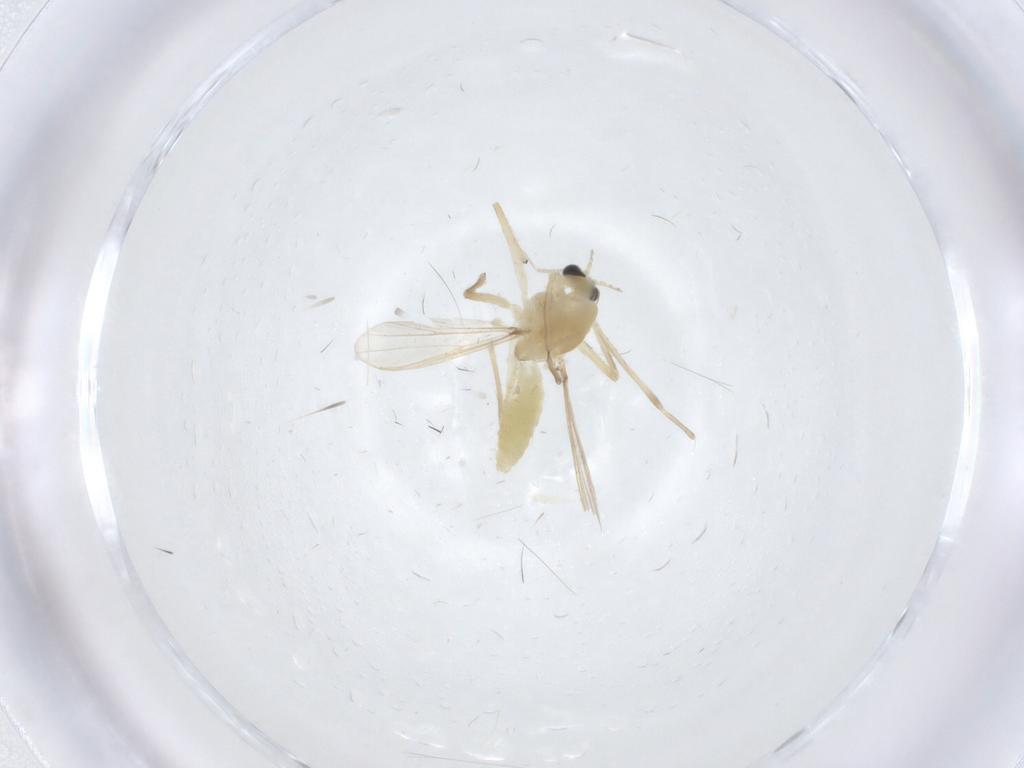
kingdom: Animalia
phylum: Arthropoda
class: Insecta
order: Diptera
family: Chironomidae
